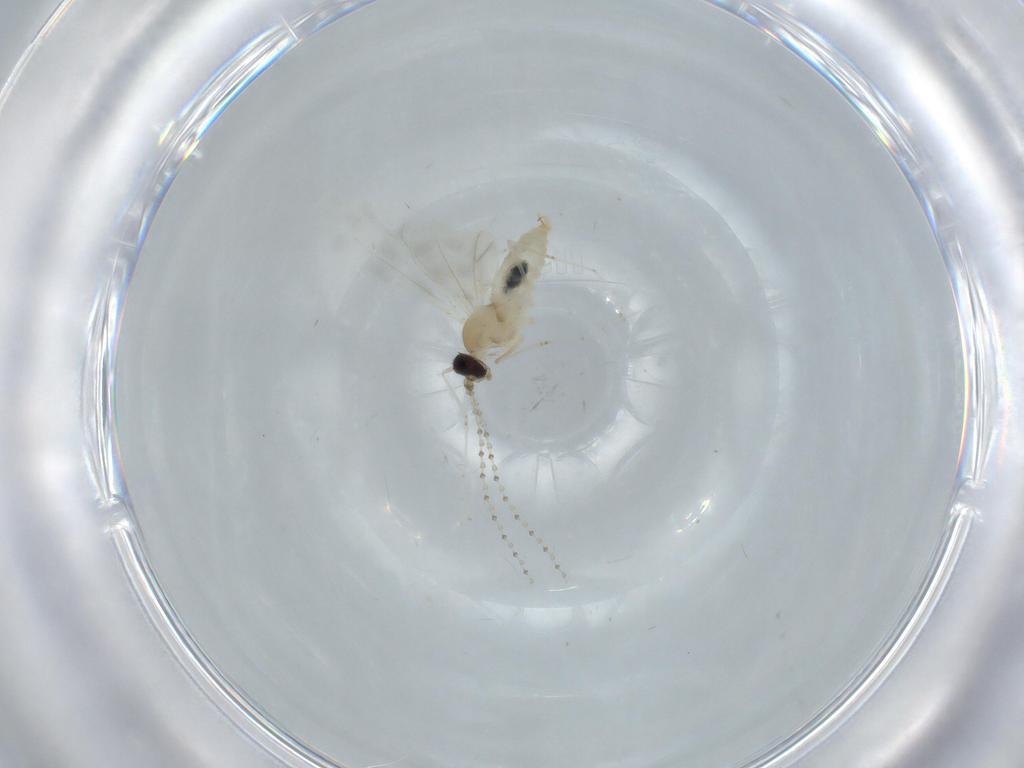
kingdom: Animalia
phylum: Arthropoda
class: Insecta
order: Diptera
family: Cecidomyiidae
